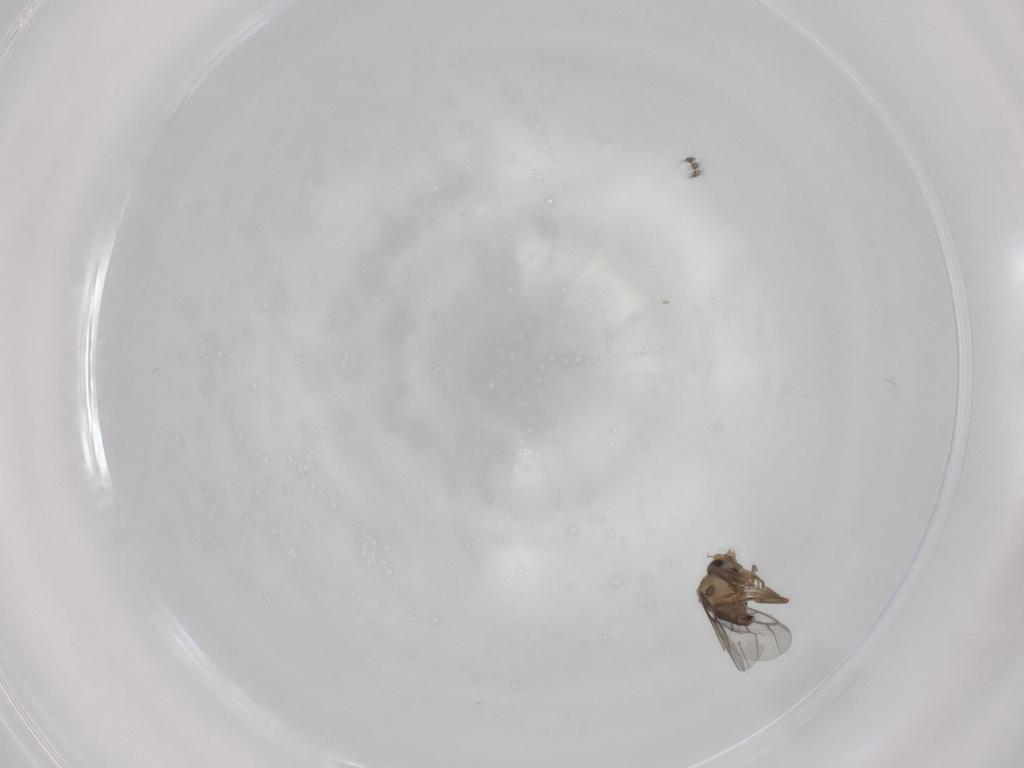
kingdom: Animalia
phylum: Arthropoda
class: Insecta
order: Diptera
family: Sciaridae
